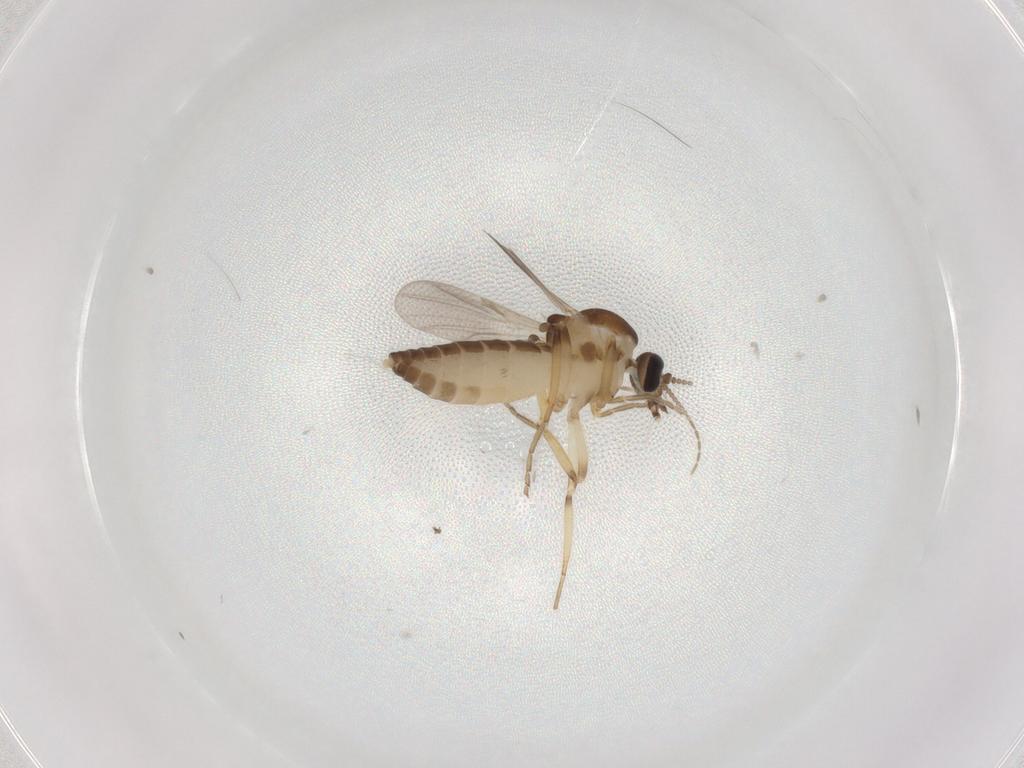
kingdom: Animalia
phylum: Arthropoda
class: Insecta
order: Diptera
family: Ceratopogonidae
